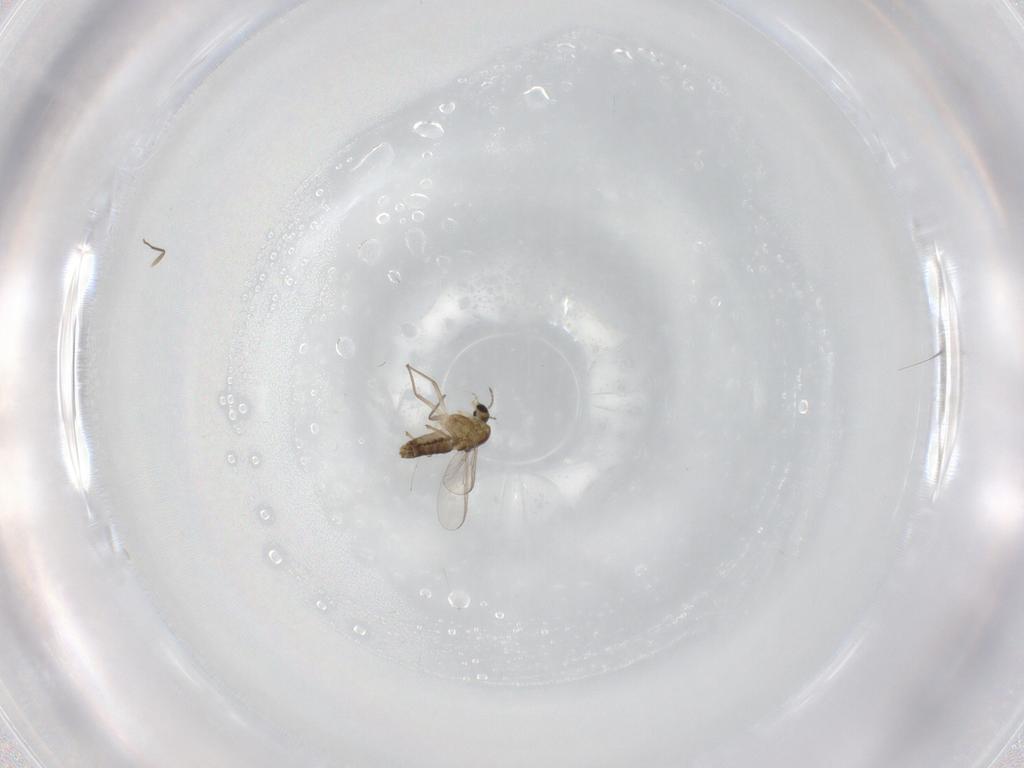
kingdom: Animalia
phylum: Arthropoda
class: Insecta
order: Diptera
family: Chironomidae
